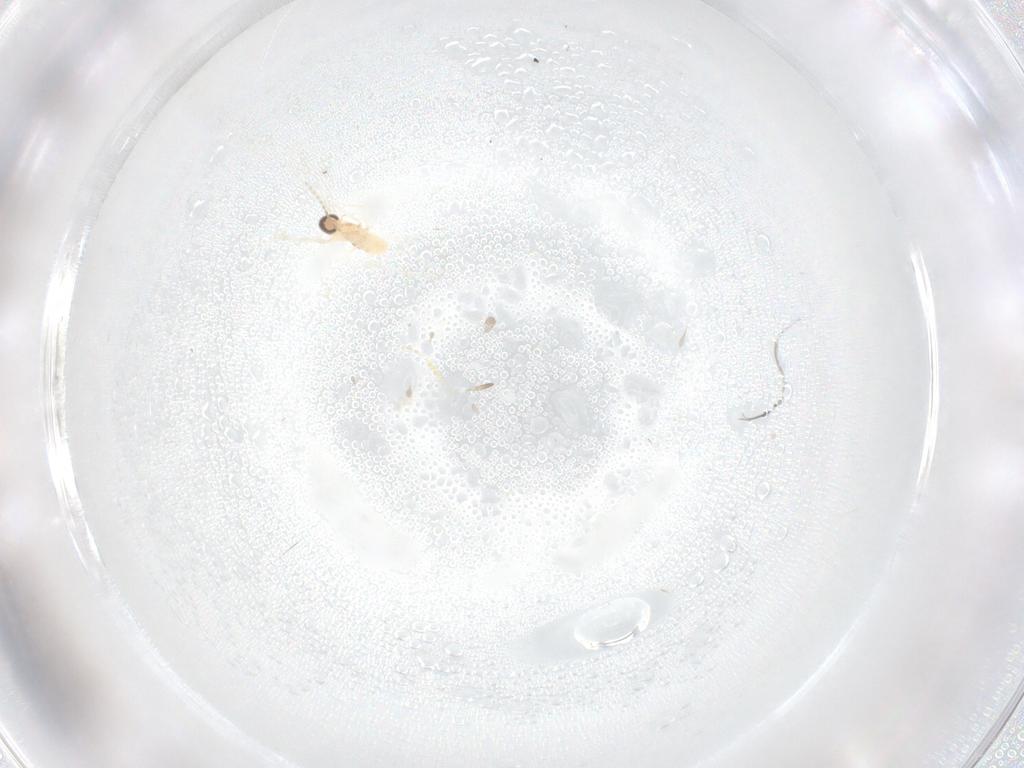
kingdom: Animalia
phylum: Arthropoda
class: Insecta
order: Diptera
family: Cecidomyiidae
